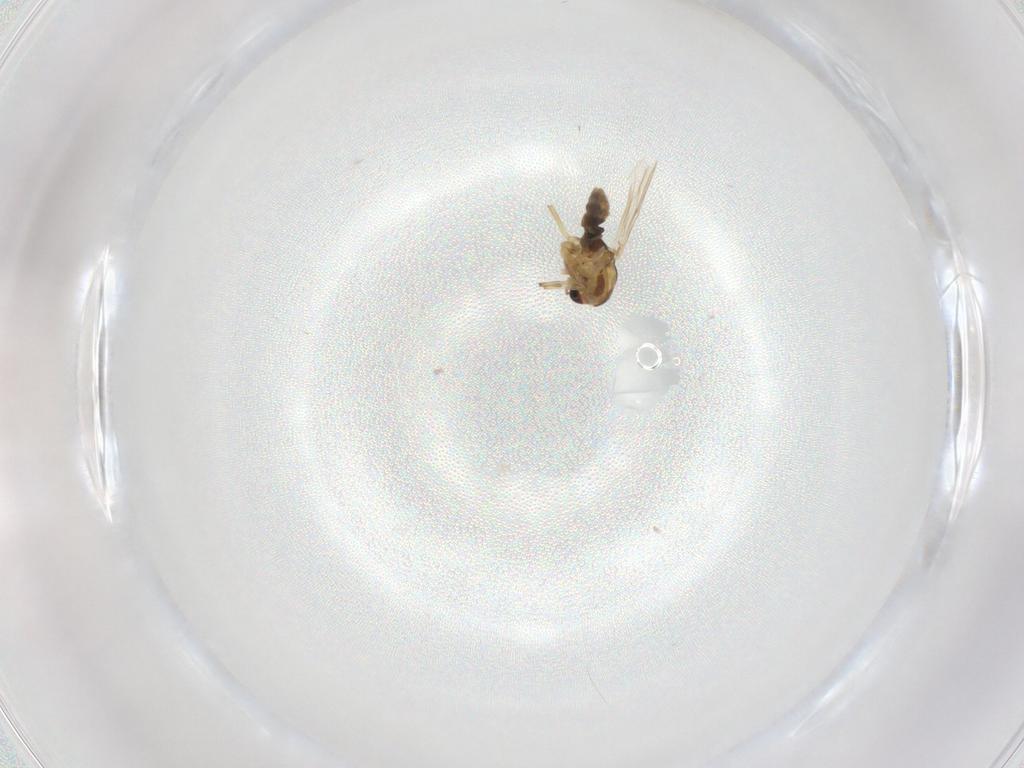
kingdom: Animalia
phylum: Arthropoda
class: Insecta
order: Diptera
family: Chironomidae
